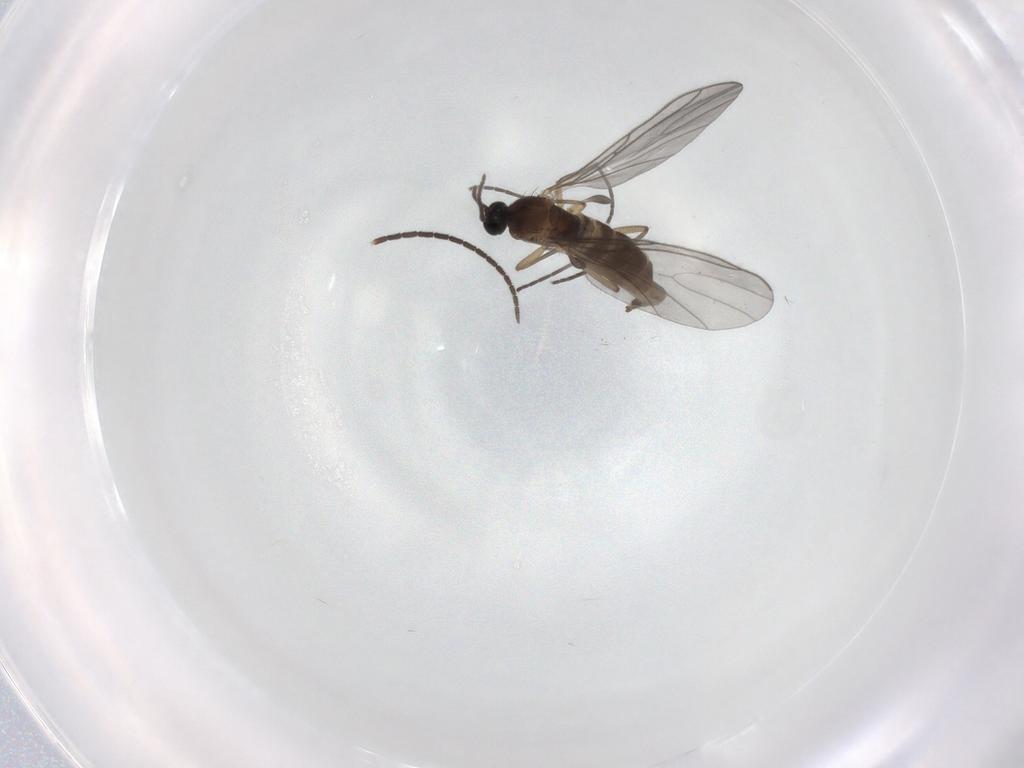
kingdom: Animalia
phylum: Arthropoda
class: Insecta
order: Diptera
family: Sciaridae
